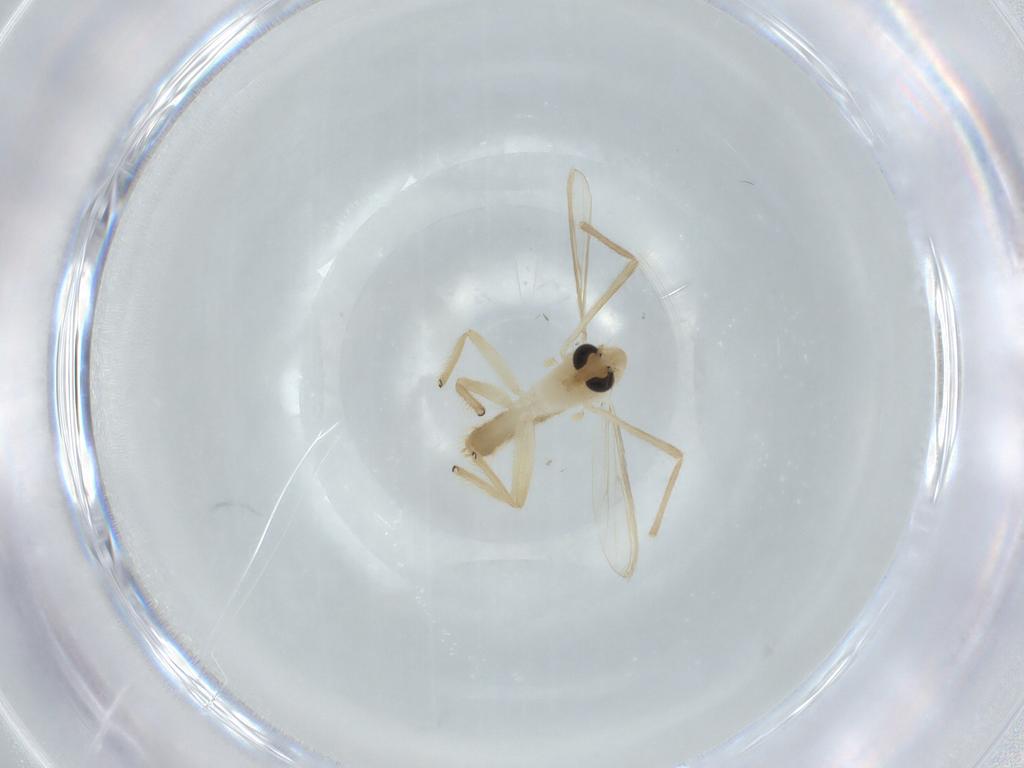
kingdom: Animalia
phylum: Arthropoda
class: Insecta
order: Diptera
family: Chironomidae
